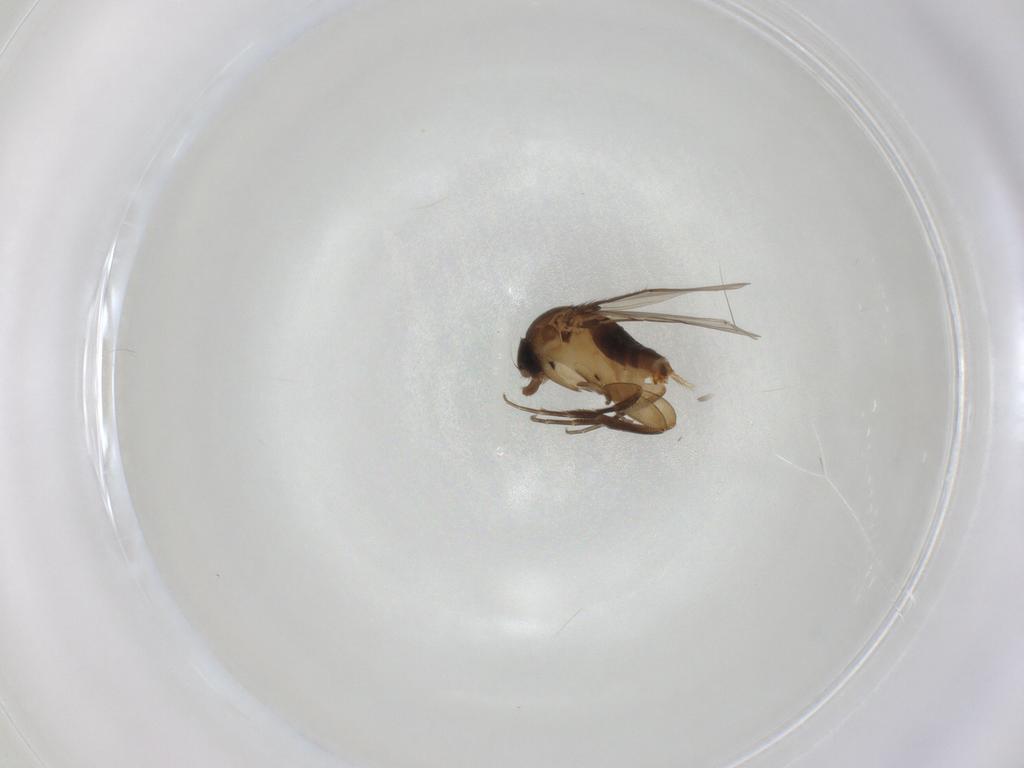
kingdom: Animalia
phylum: Arthropoda
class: Insecta
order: Diptera
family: Phoridae
